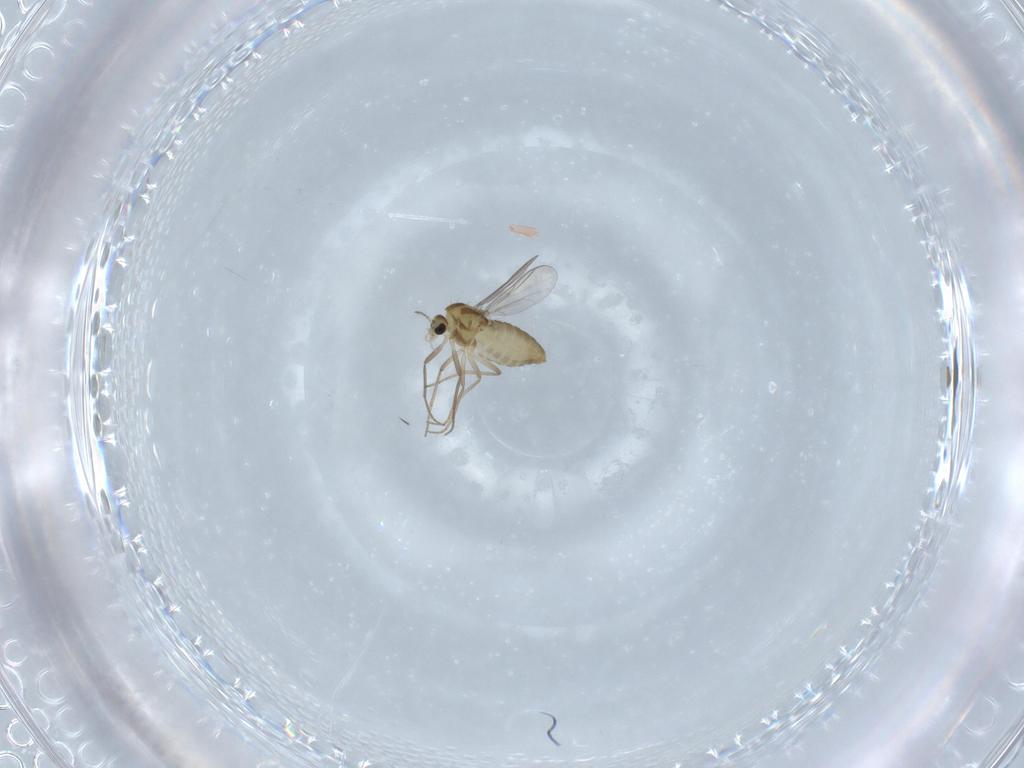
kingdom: Animalia
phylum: Arthropoda
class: Insecta
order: Diptera
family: Chironomidae
